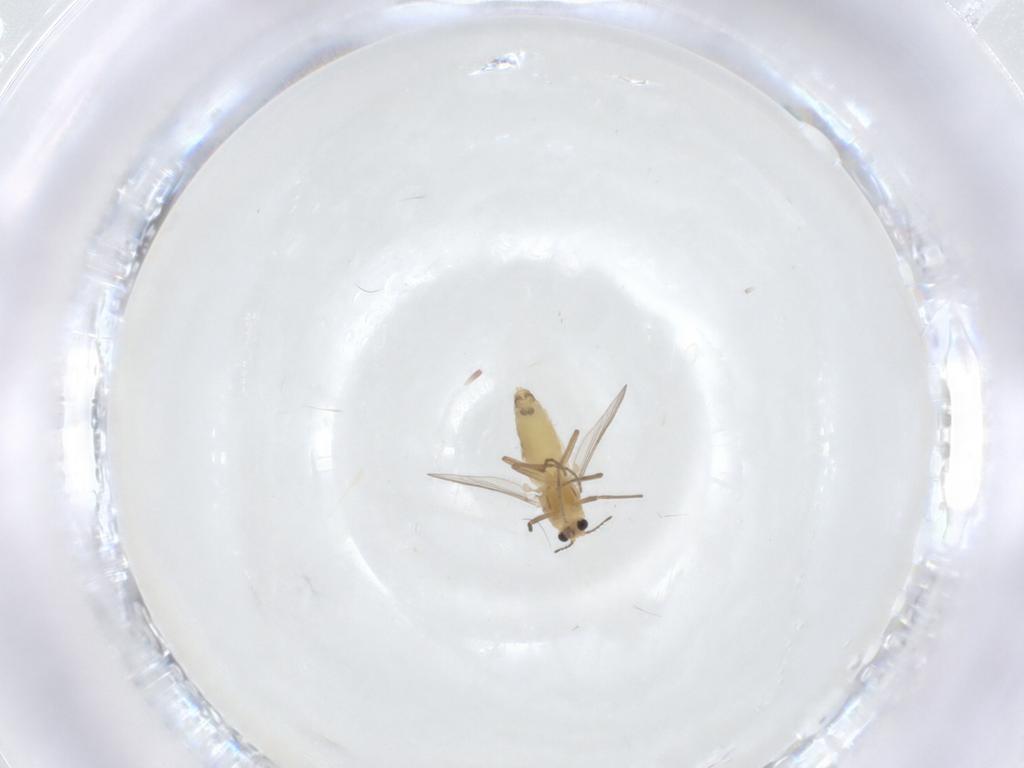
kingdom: Animalia
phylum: Arthropoda
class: Insecta
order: Diptera
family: Chironomidae
